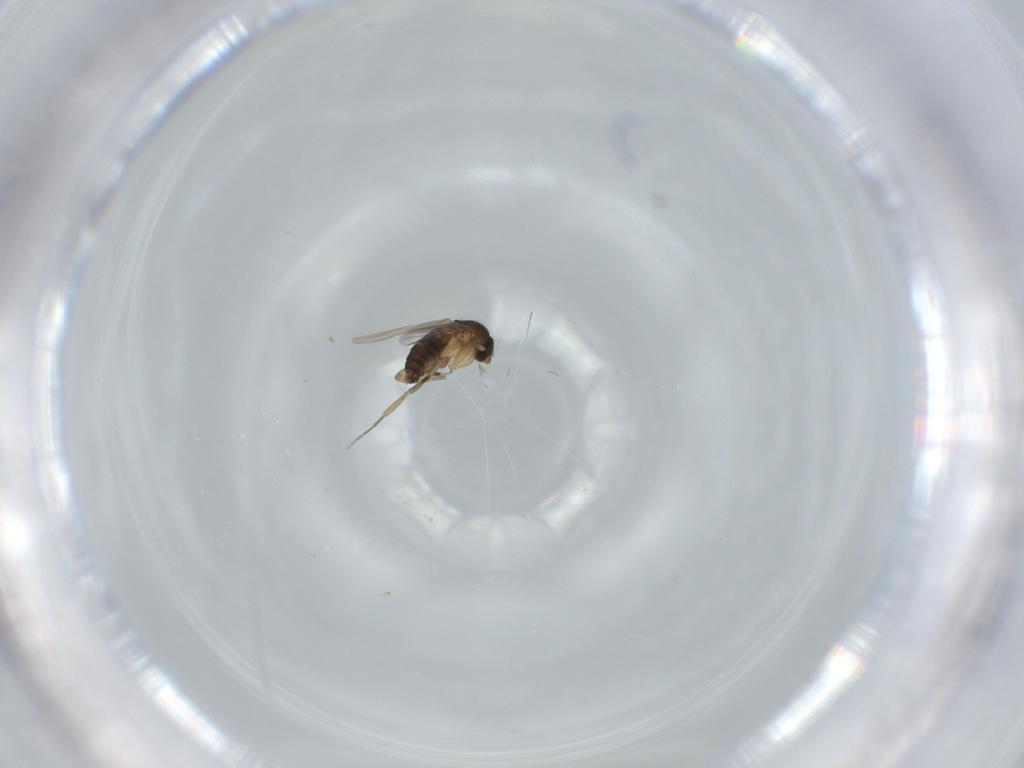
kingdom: Animalia
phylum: Arthropoda
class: Insecta
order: Diptera
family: Phoridae
